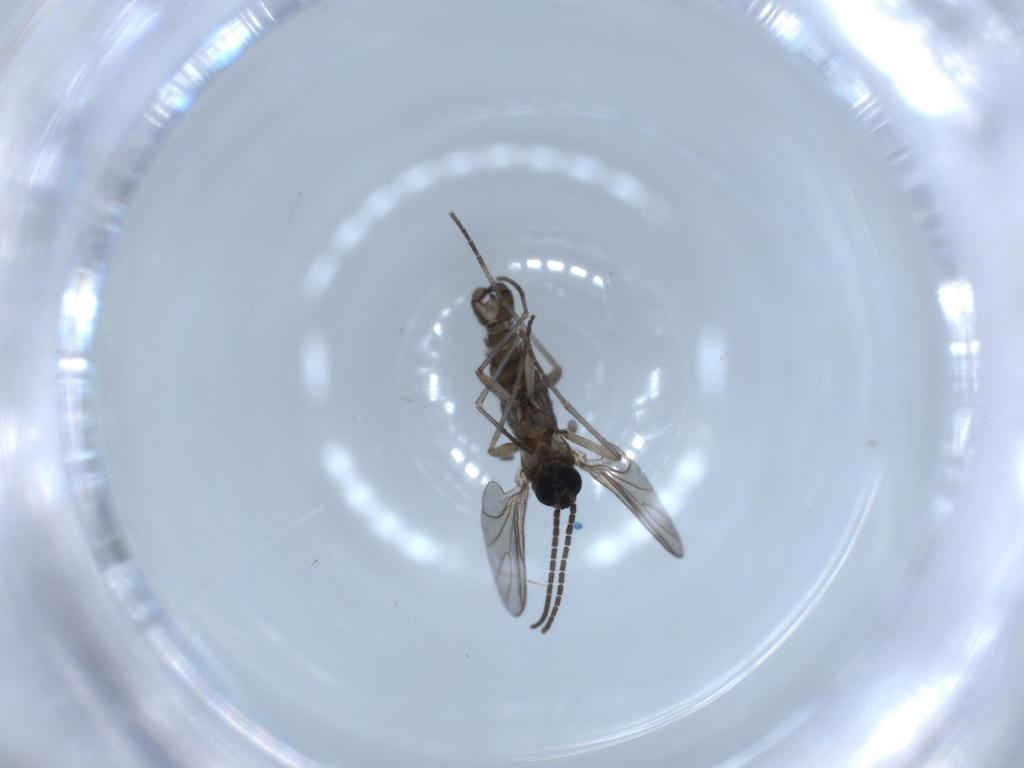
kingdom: Animalia
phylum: Arthropoda
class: Insecta
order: Diptera
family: Sciaridae
